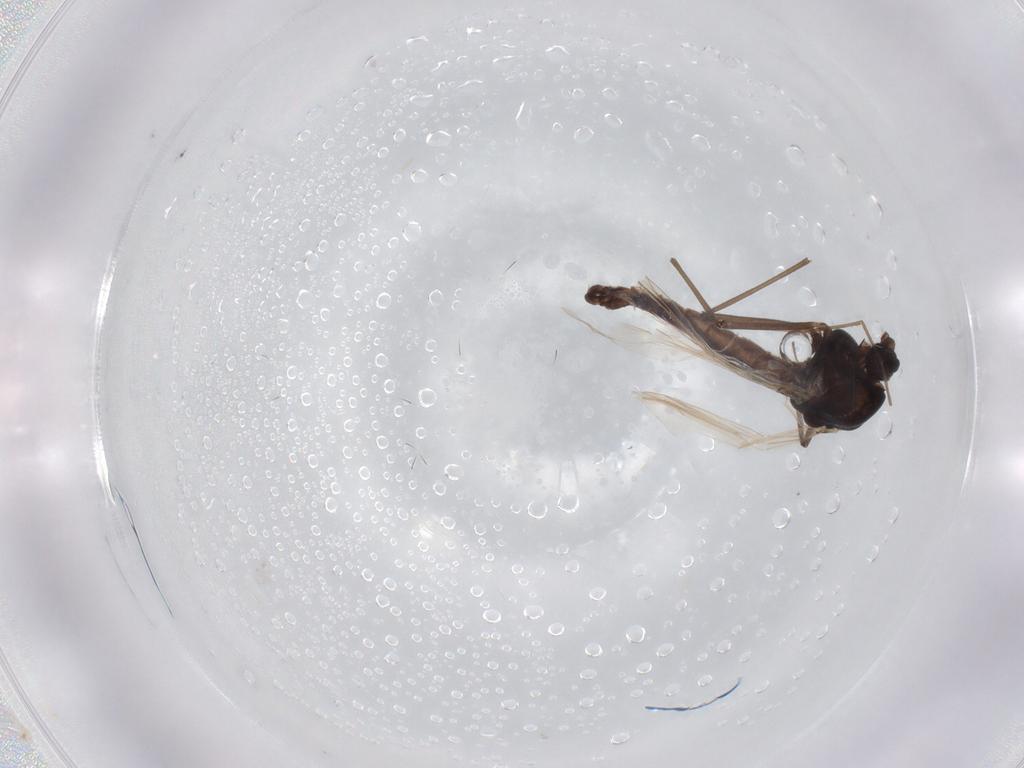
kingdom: Animalia
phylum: Arthropoda
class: Insecta
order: Diptera
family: Chironomidae
